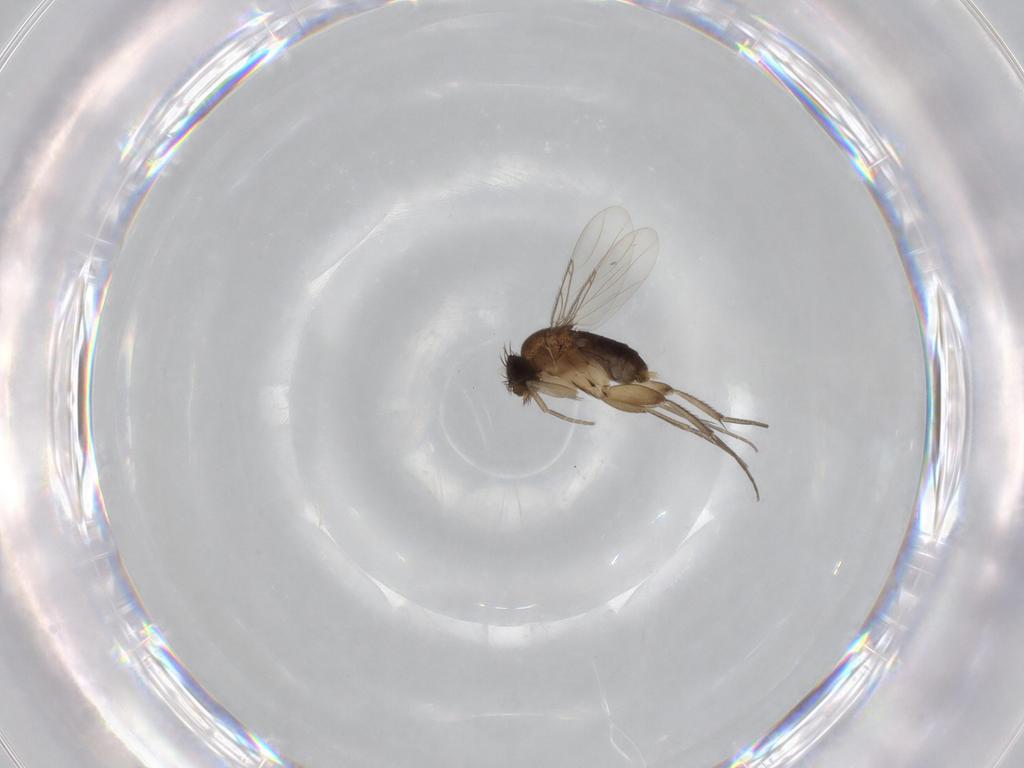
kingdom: Animalia
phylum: Arthropoda
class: Insecta
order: Diptera
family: Phoridae
